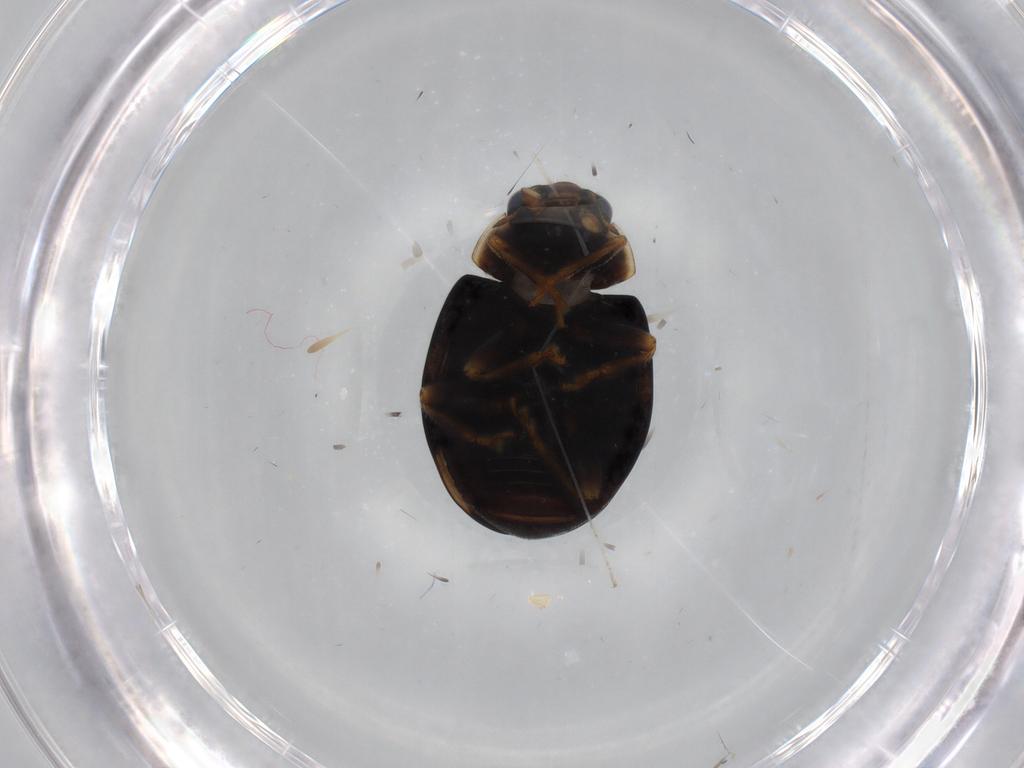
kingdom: Animalia
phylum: Arthropoda
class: Insecta
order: Coleoptera
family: Coccinellidae
